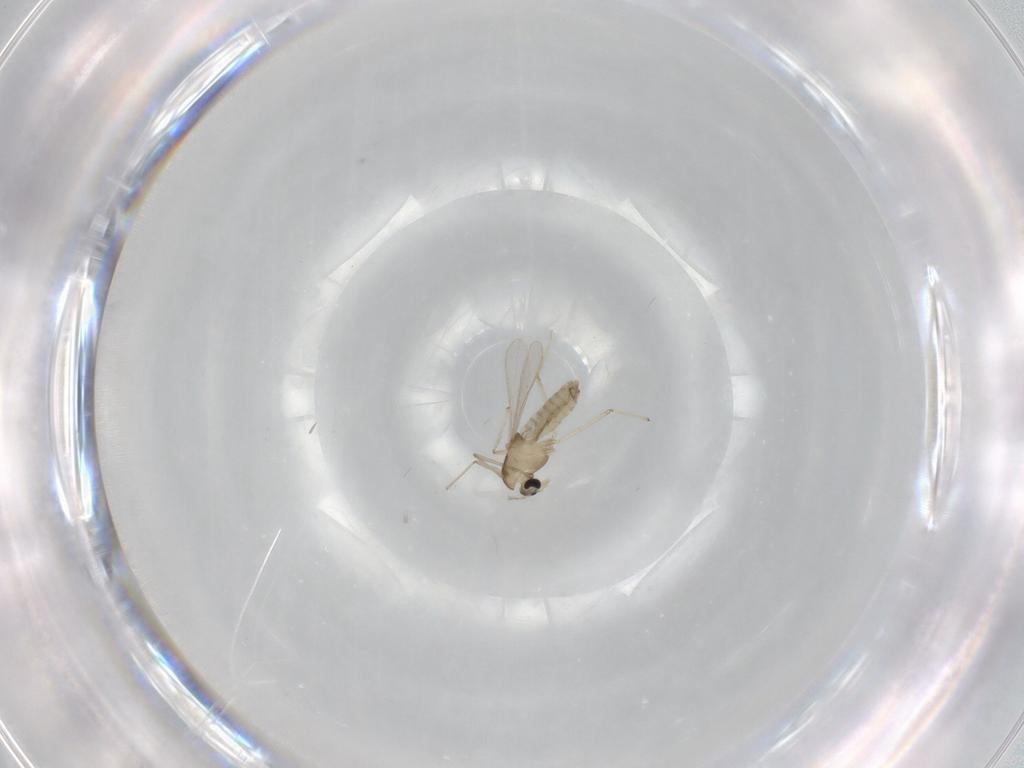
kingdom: Animalia
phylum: Arthropoda
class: Insecta
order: Diptera
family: Chironomidae
